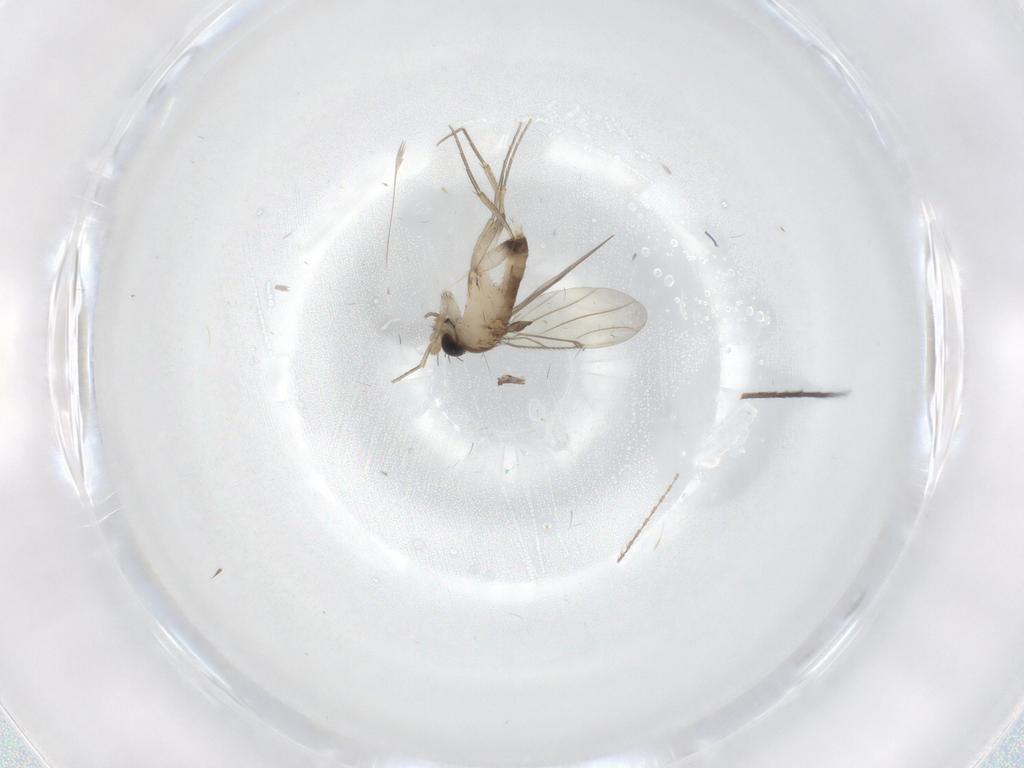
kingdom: Animalia
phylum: Arthropoda
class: Insecta
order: Diptera
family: Cecidomyiidae
